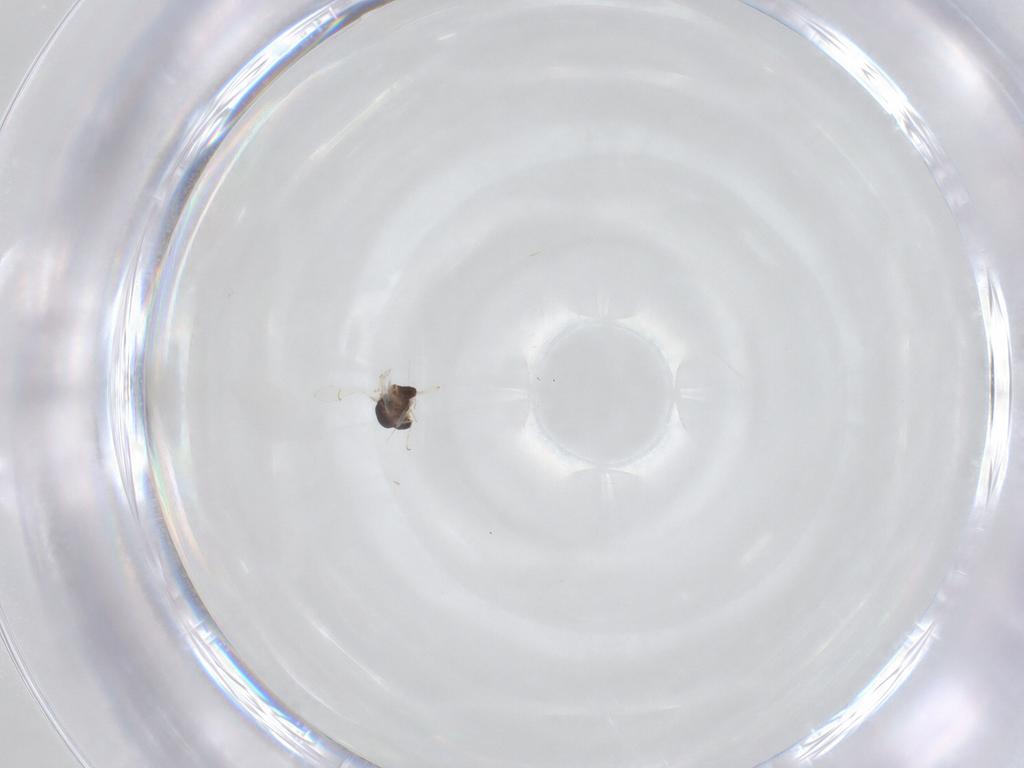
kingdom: Animalia
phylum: Arthropoda
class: Insecta
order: Diptera
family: Chironomidae
